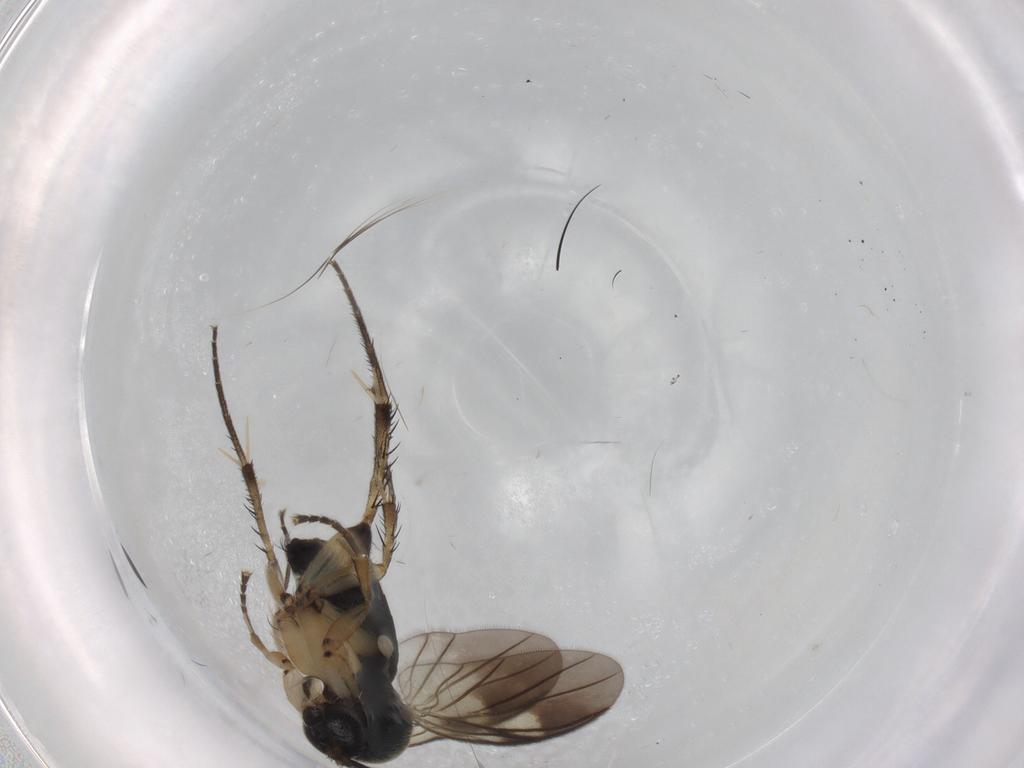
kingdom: Animalia
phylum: Arthropoda
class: Insecta
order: Diptera
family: Mycetophilidae
